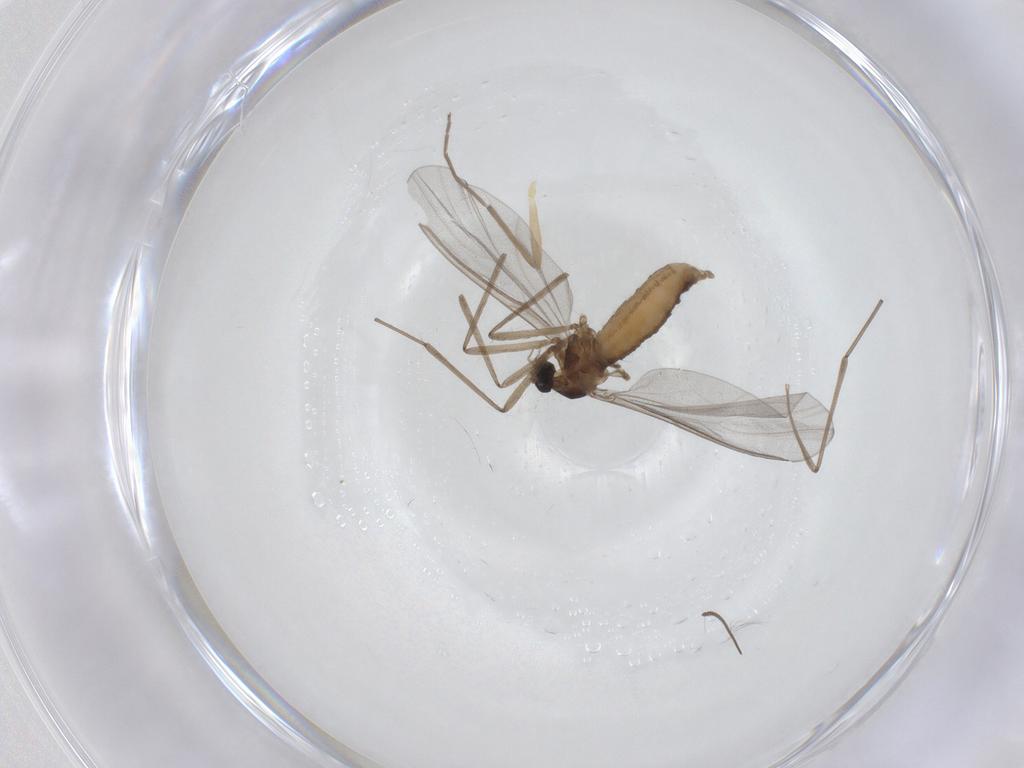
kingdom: Animalia
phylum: Arthropoda
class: Insecta
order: Diptera
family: Cecidomyiidae
